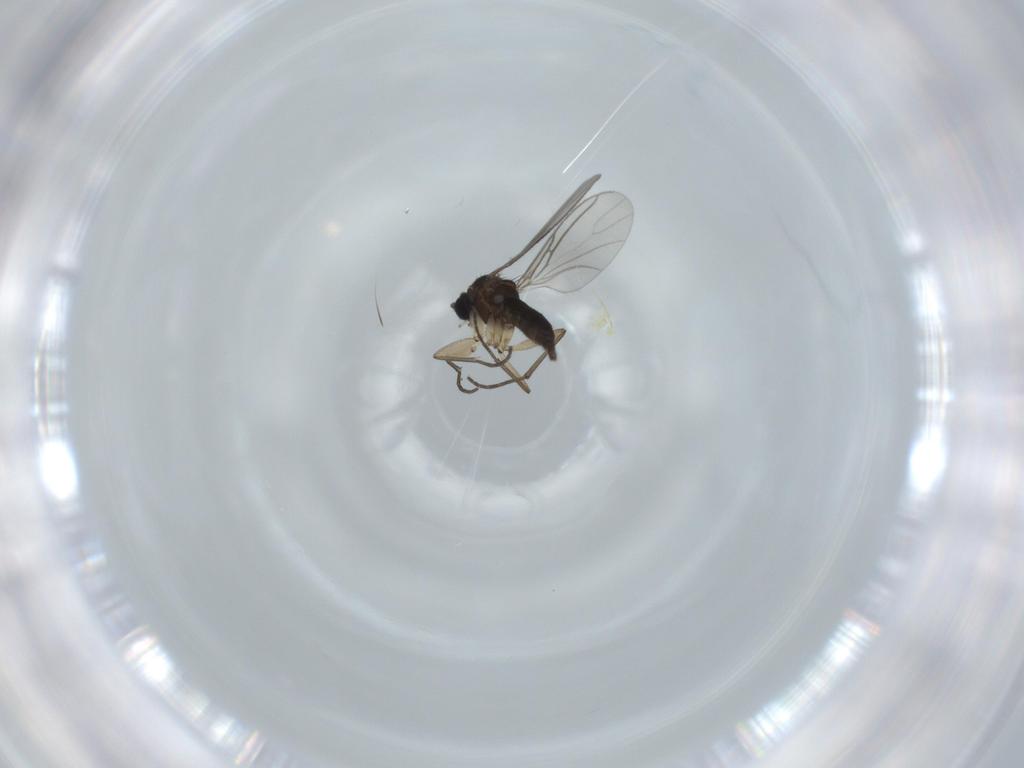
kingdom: Animalia
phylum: Arthropoda
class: Insecta
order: Diptera
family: Sciaridae
